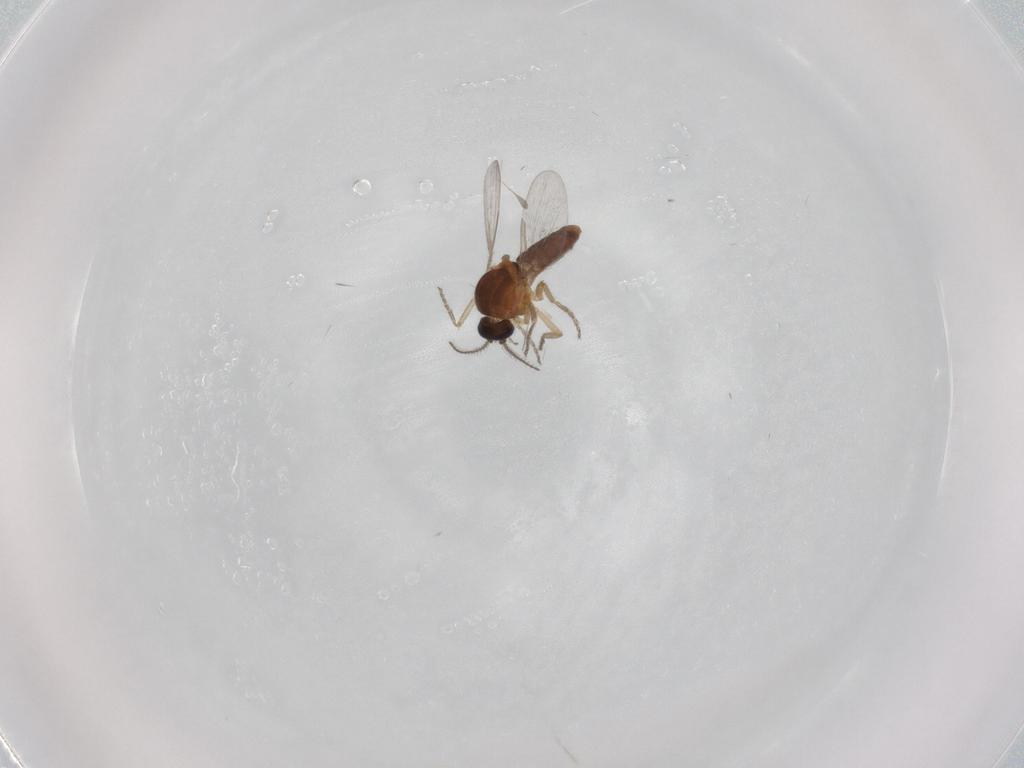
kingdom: Animalia
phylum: Arthropoda
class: Insecta
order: Diptera
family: Ceratopogonidae
